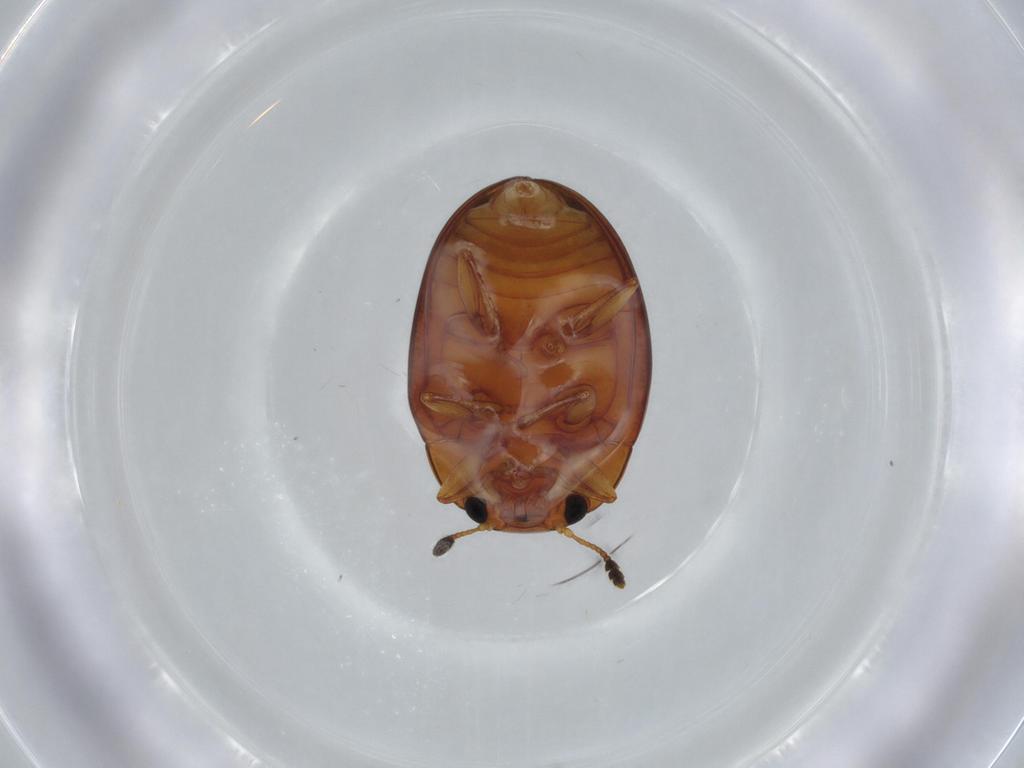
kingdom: Animalia
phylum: Arthropoda
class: Insecta
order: Coleoptera
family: Erotylidae
